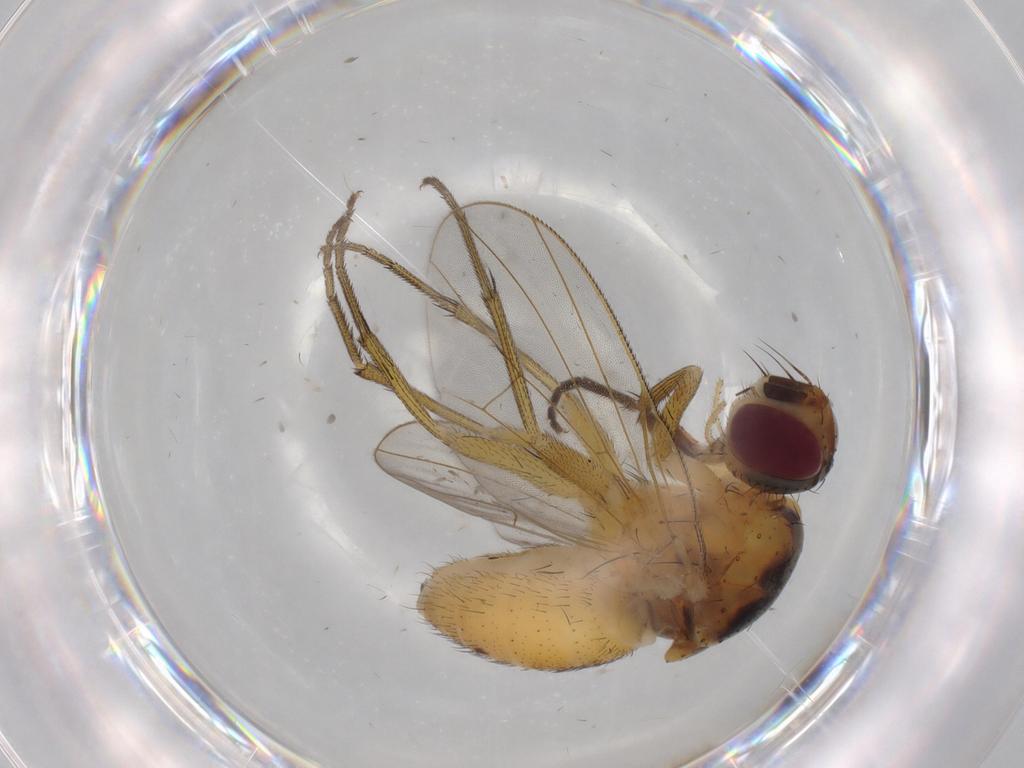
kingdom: Animalia
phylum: Arthropoda
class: Insecta
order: Diptera
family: Muscidae
